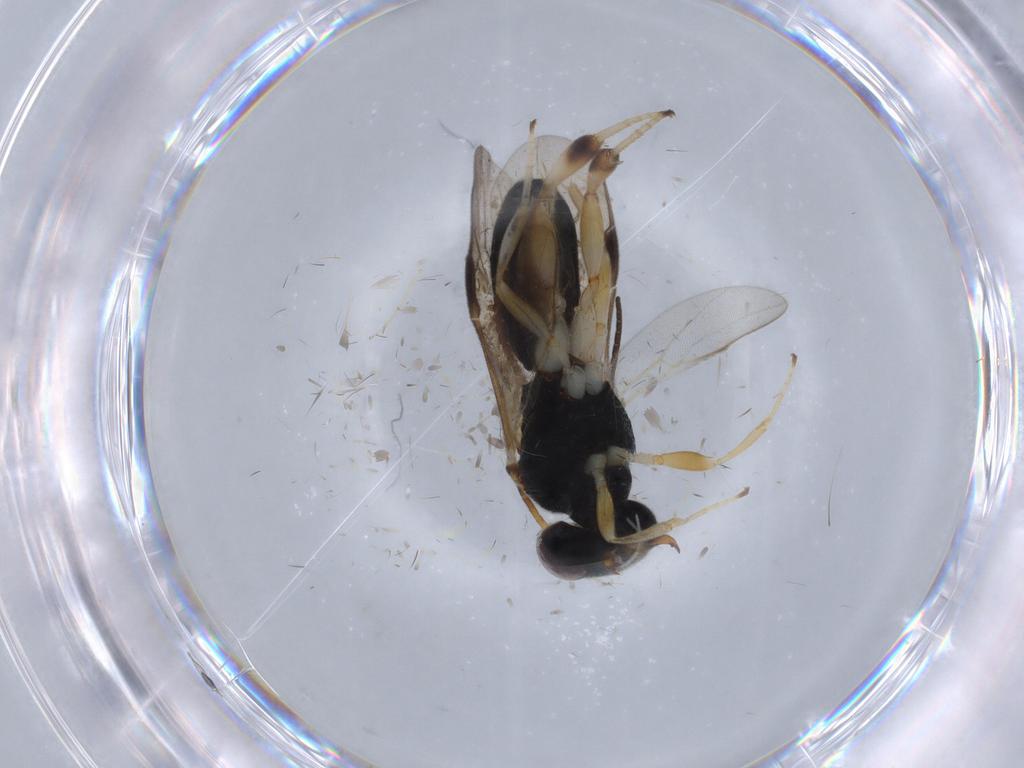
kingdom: Animalia
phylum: Arthropoda
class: Insecta
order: Hymenoptera
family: Braconidae
